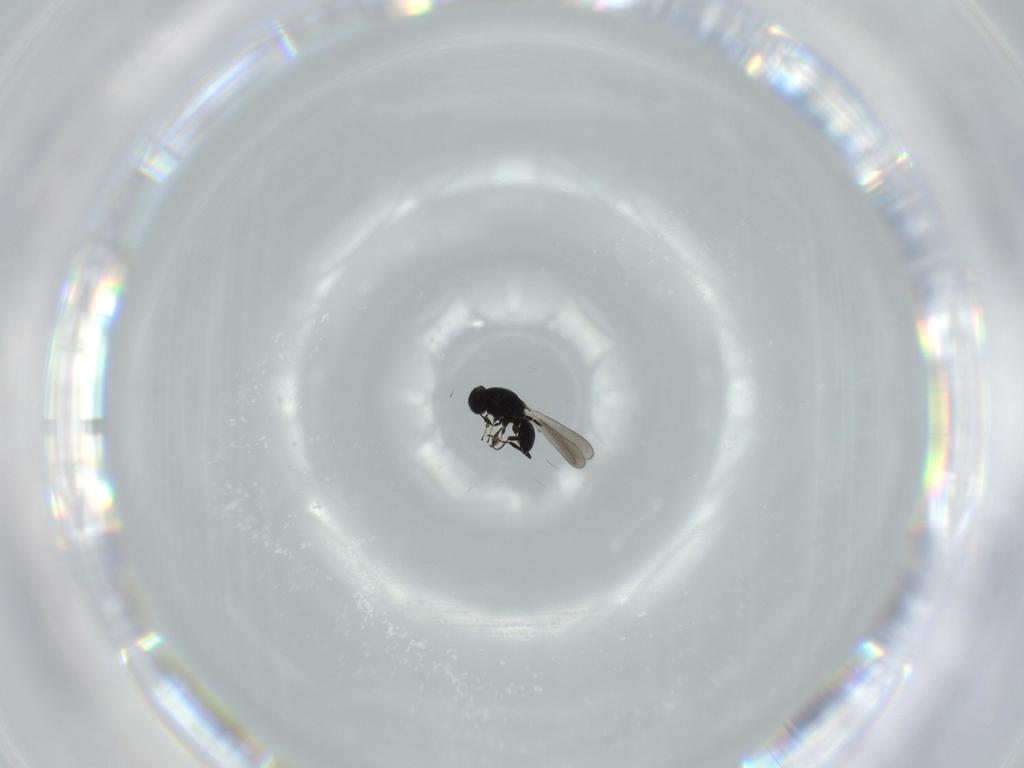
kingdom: Animalia
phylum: Arthropoda
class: Insecta
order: Hymenoptera
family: Platygastridae
